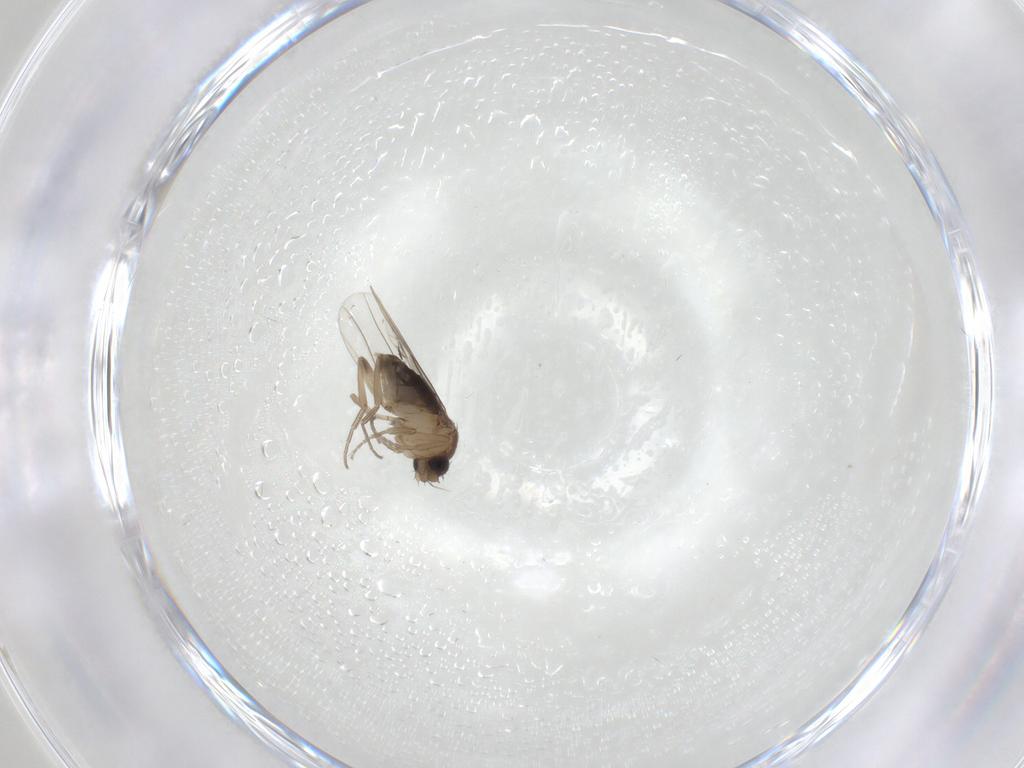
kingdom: Animalia
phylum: Arthropoda
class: Insecta
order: Diptera
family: Phoridae
